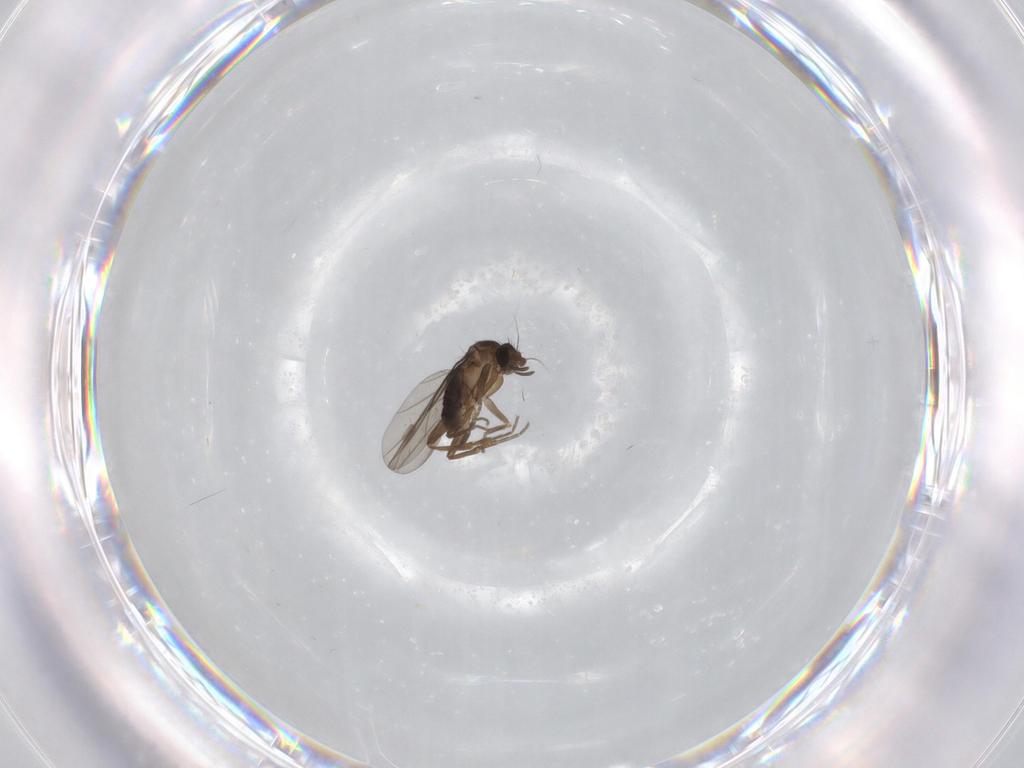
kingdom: Animalia
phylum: Arthropoda
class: Insecta
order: Diptera
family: Phoridae
